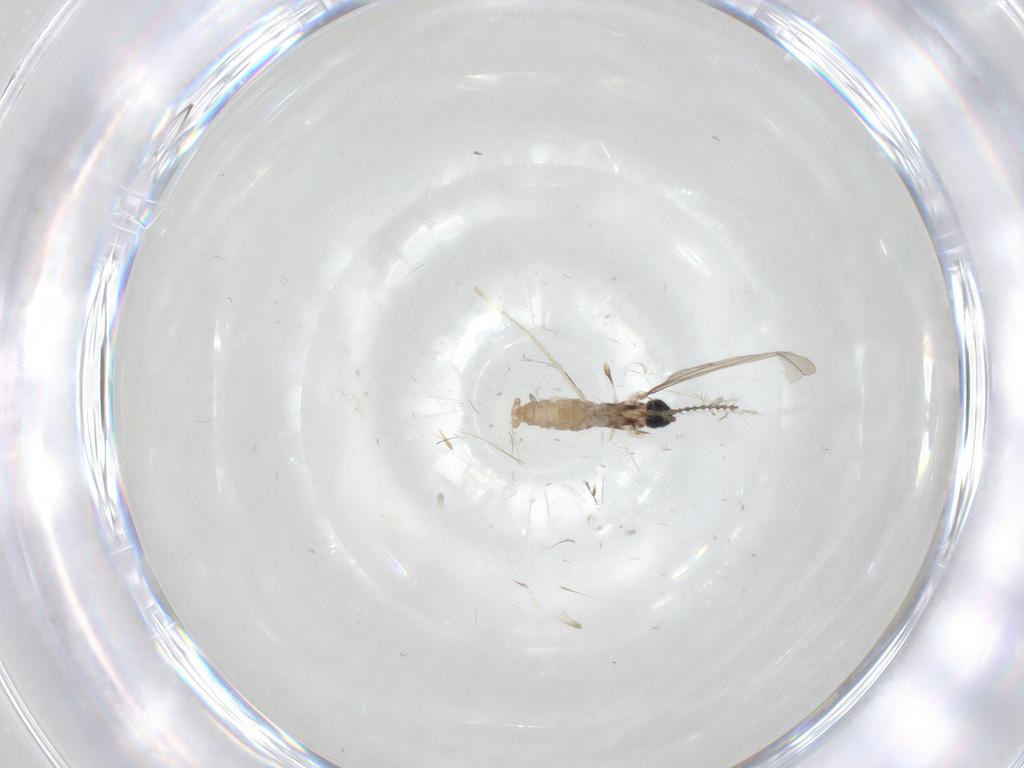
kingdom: Animalia
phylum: Arthropoda
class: Insecta
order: Diptera
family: Cecidomyiidae
